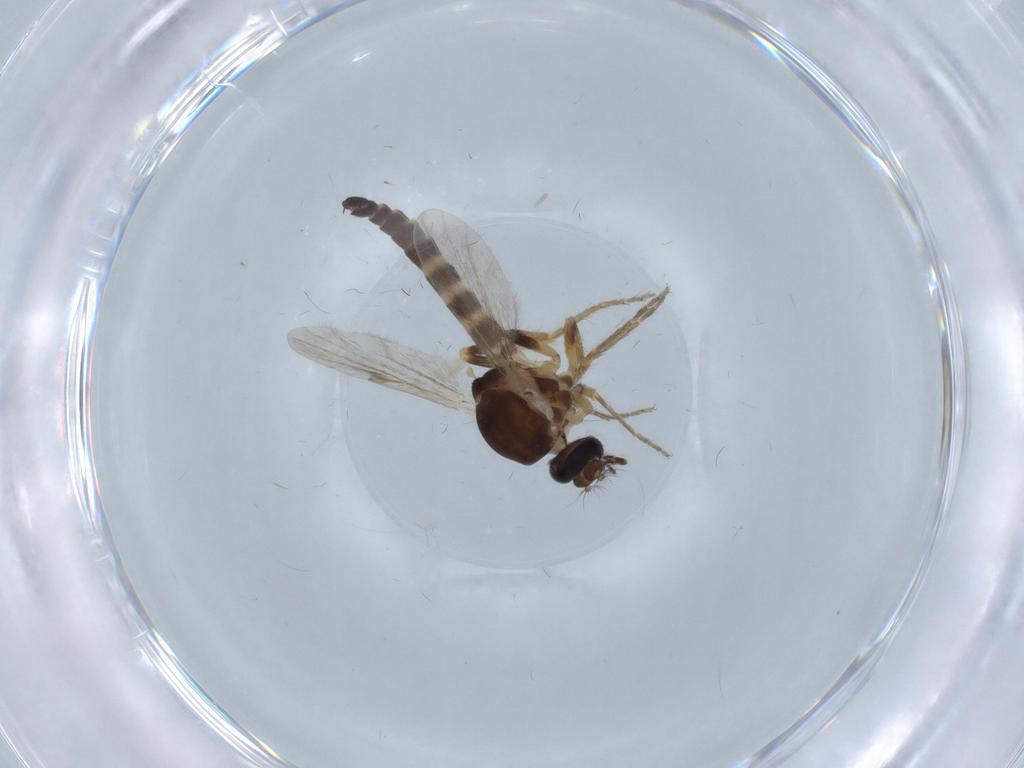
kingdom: Animalia
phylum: Arthropoda
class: Insecta
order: Diptera
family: Ceratopogonidae
